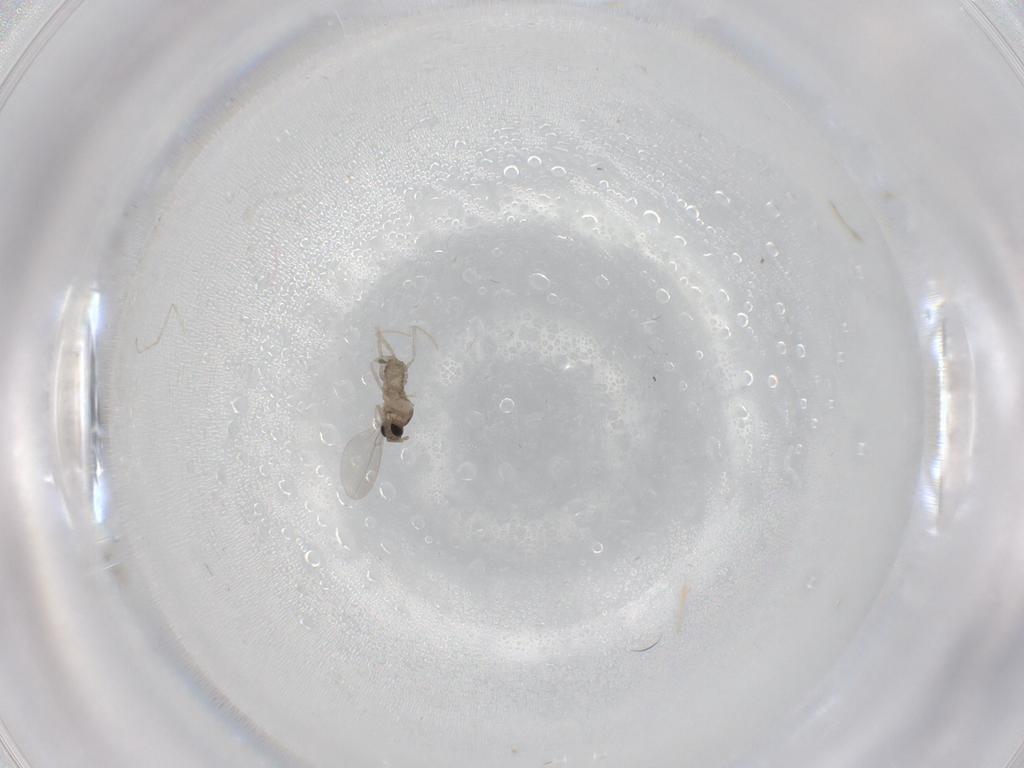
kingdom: Animalia
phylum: Arthropoda
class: Insecta
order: Diptera
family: Cecidomyiidae
